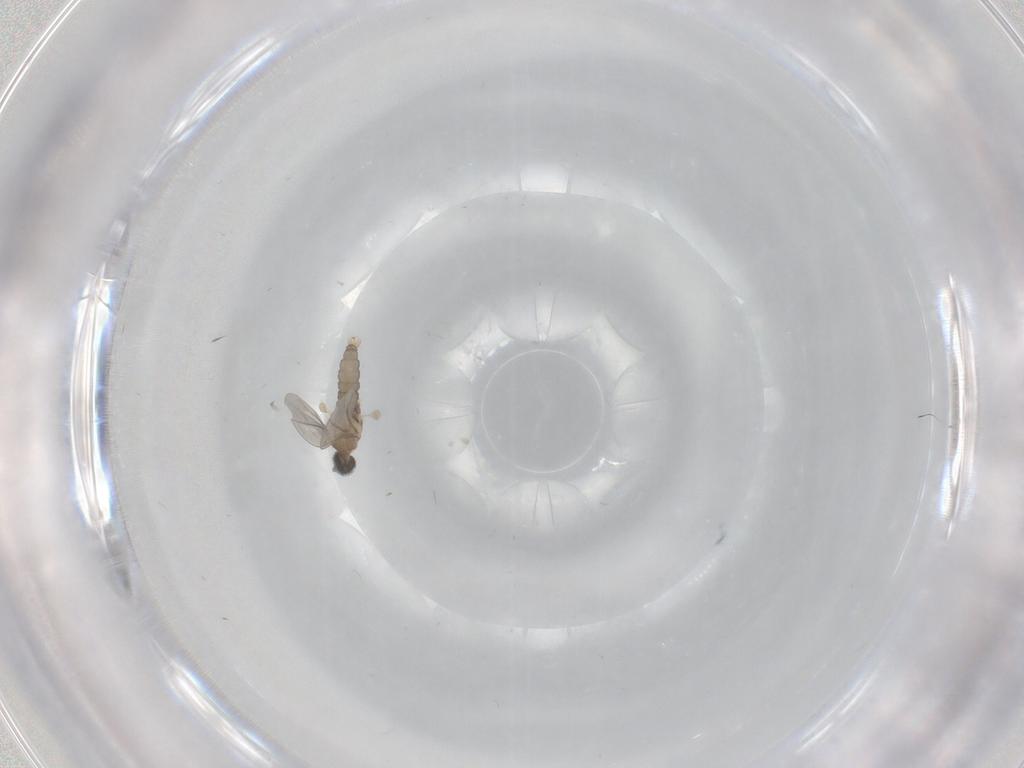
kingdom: Animalia
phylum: Arthropoda
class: Insecta
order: Diptera
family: Cecidomyiidae
